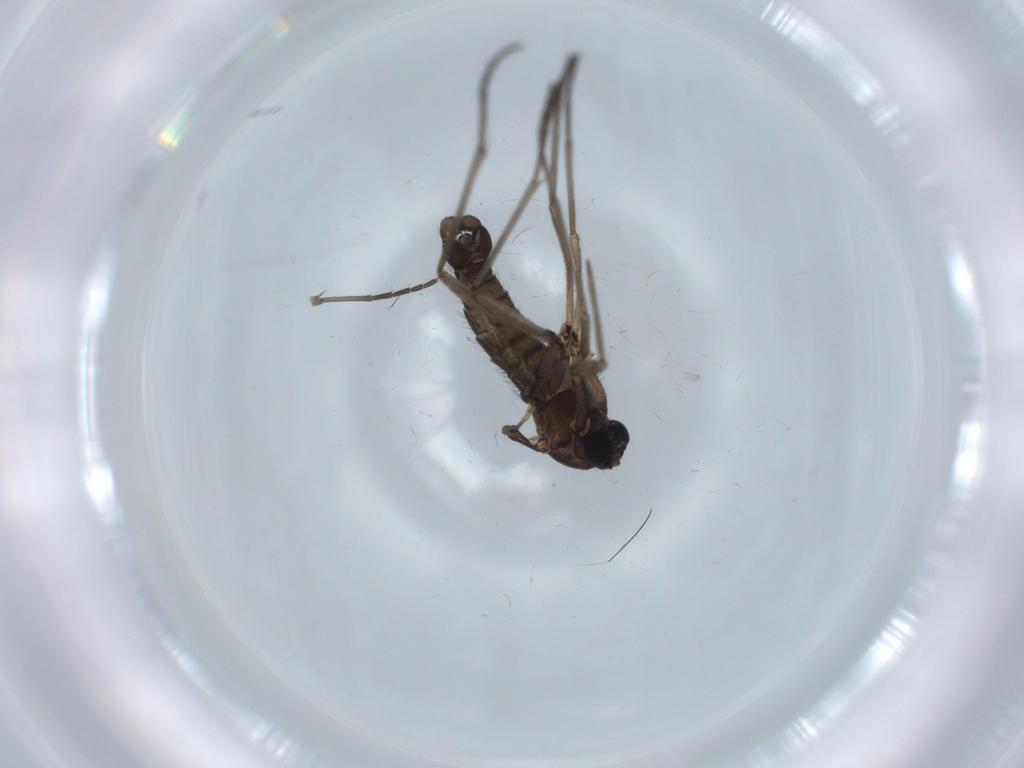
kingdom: Animalia
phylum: Arthropoda
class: Insecta
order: Diptera
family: Sciaridae
